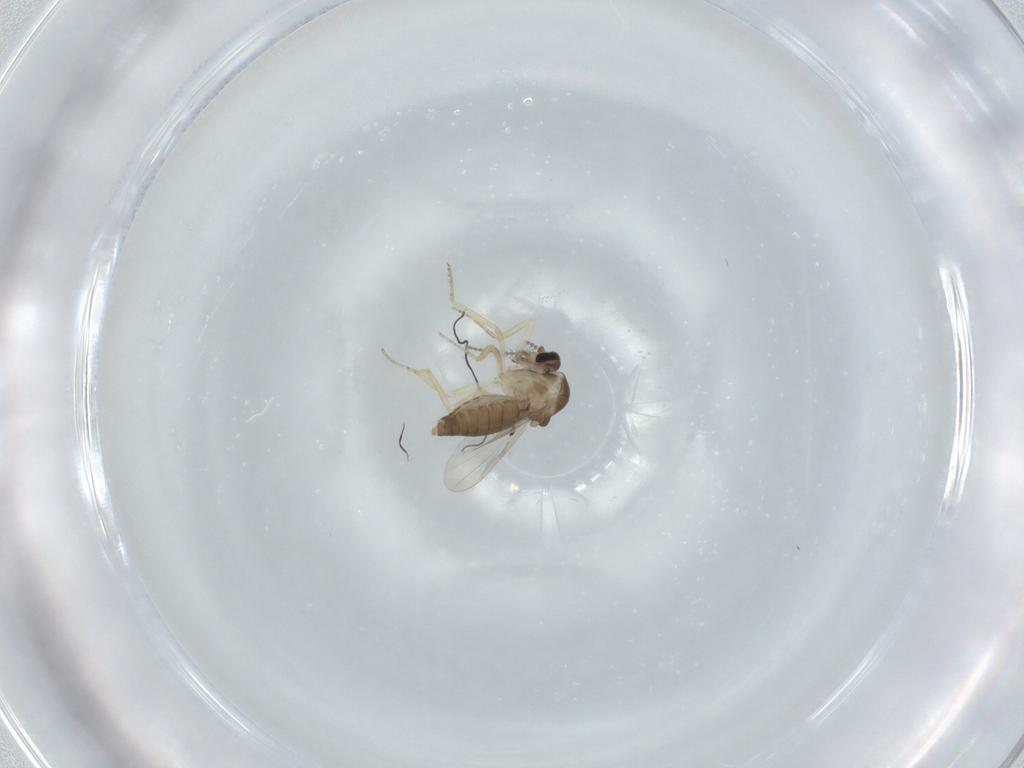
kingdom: Animalia
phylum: Arthropoda
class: Insecta
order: Diptera
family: Ceratopogonidae
